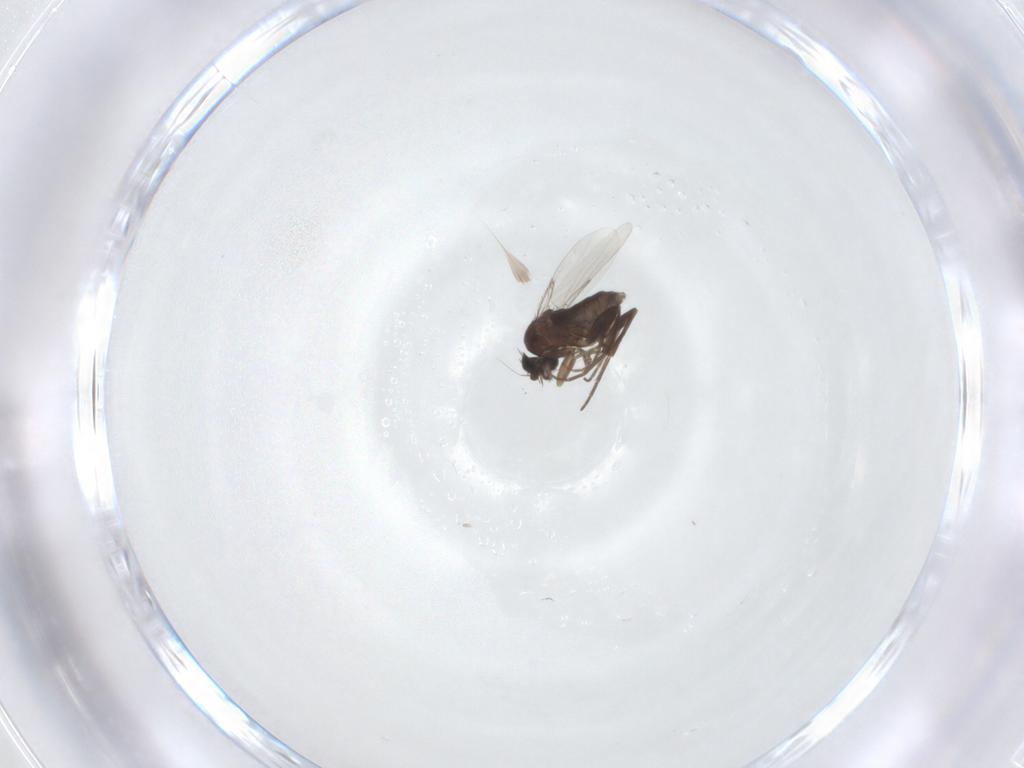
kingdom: Animalia
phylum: Arthropoda
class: Insecta
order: Diptera
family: Phoridae
